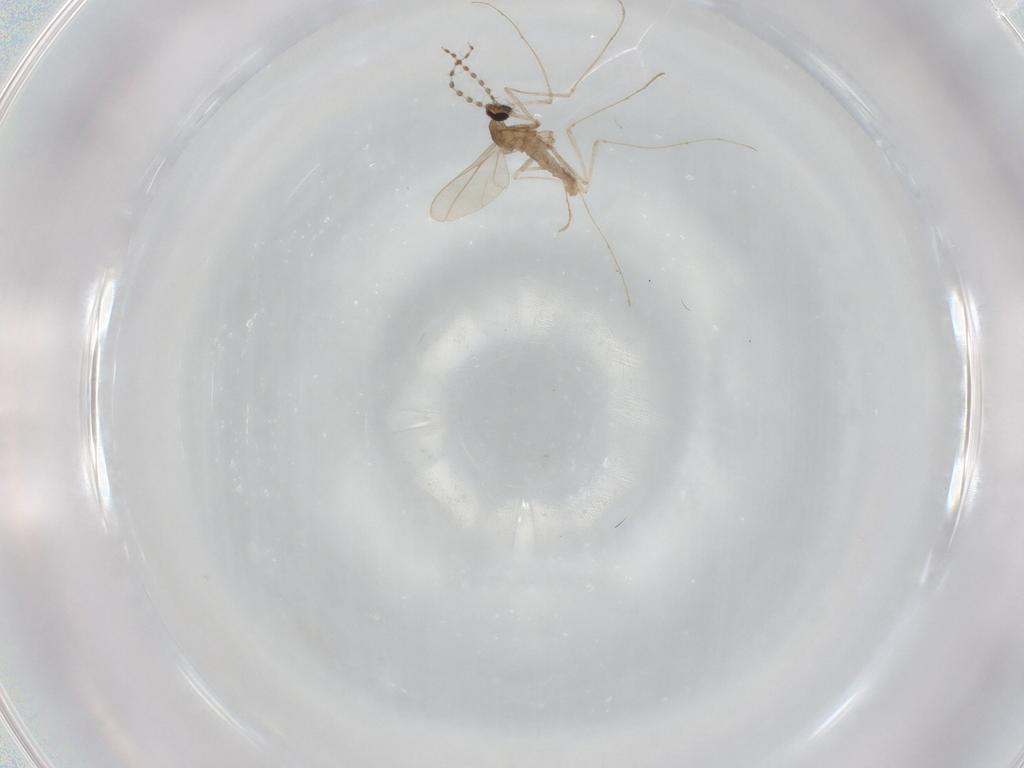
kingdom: Animalia
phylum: Arthropoda
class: Insecta
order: Diptera
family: Cecidomyiidae
